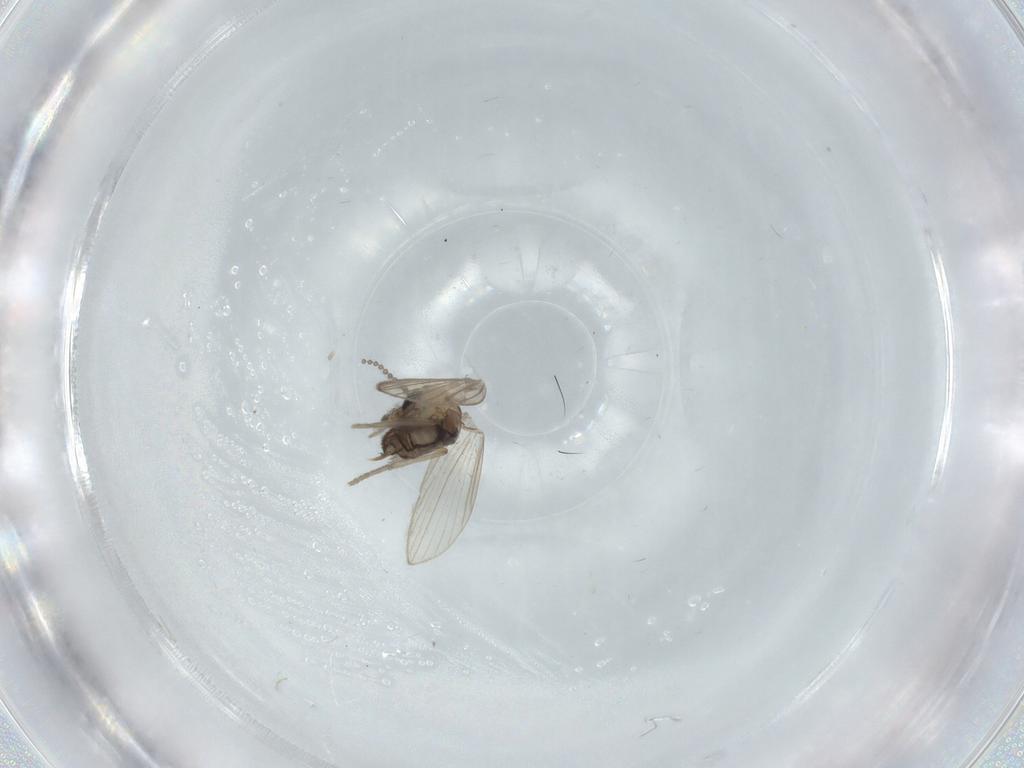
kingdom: Animalia
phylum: Arthropoda
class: Insecta
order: Diptera
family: Psychodidae
